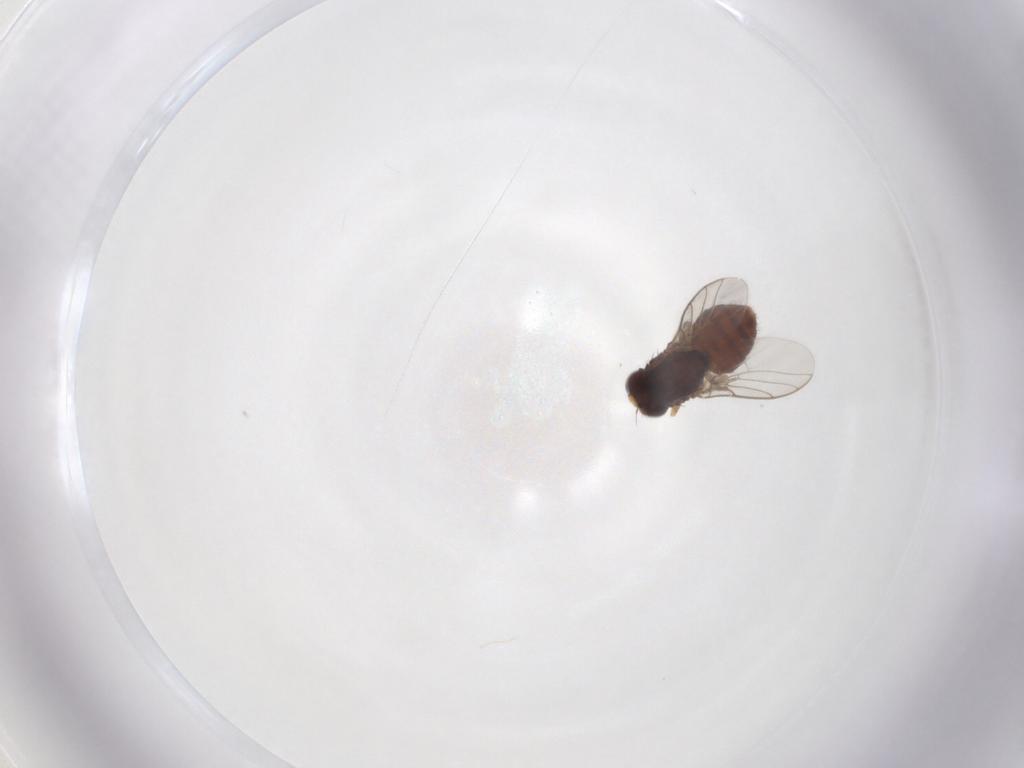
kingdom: Animalia
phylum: Arthropoda
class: Insecta
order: Diptera
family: Chloropidae
